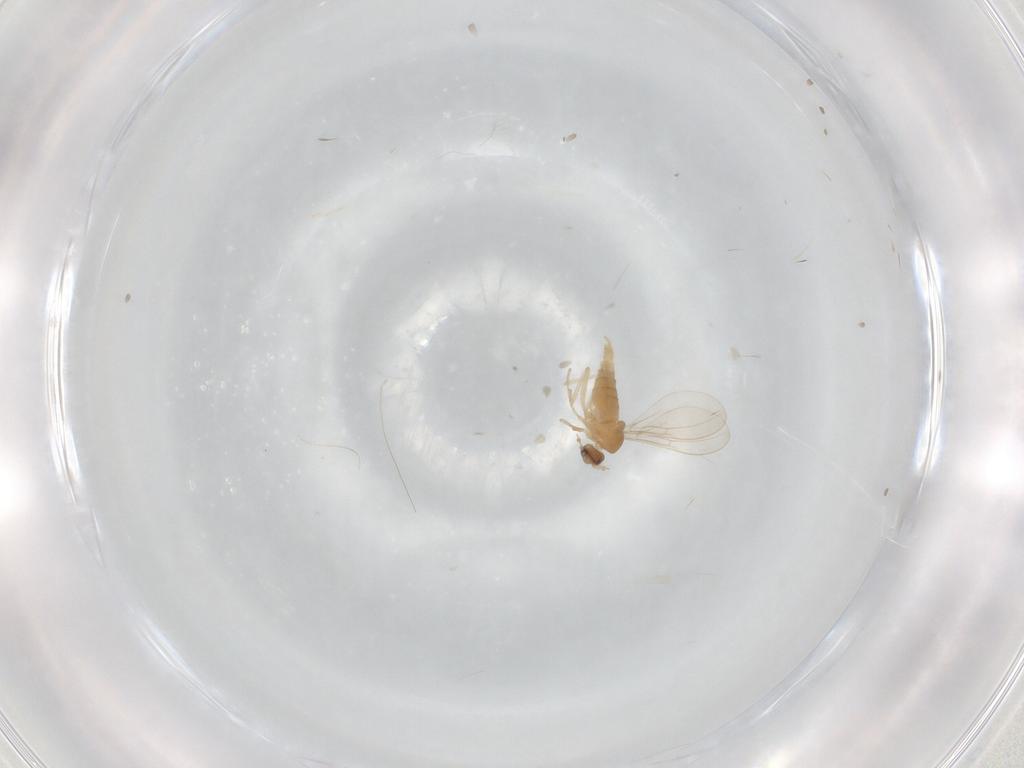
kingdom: Animalia
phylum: Arthropoda
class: Insecta
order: Diptera
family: Cecidomyiidae
